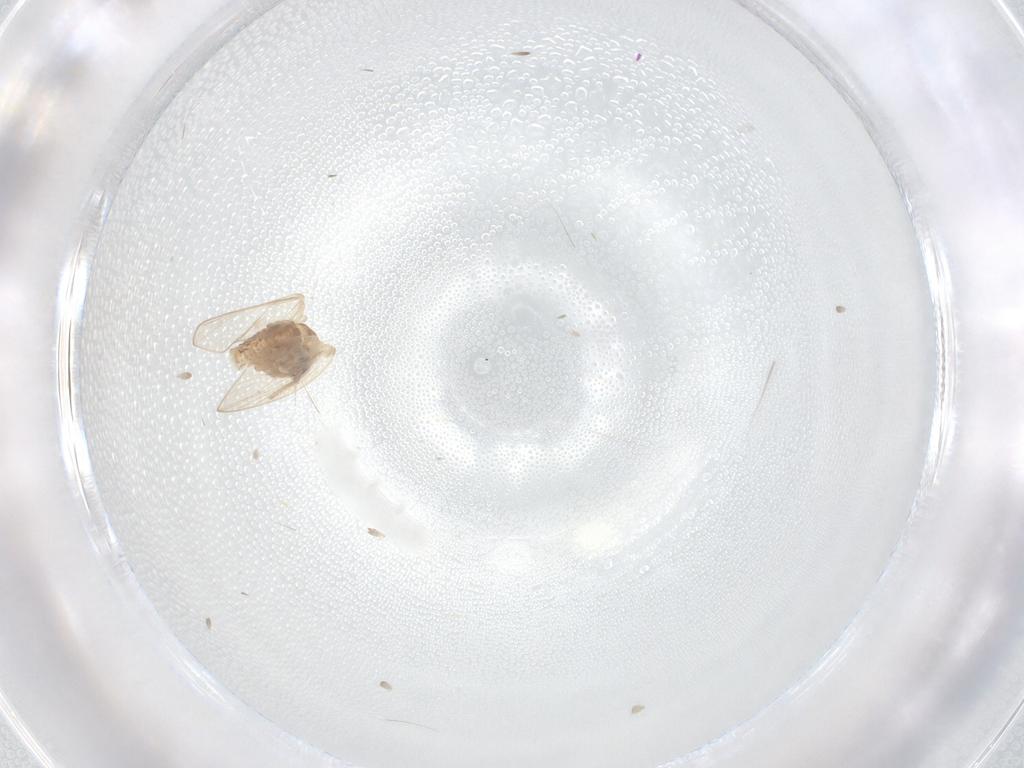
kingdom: Animalia
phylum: Arthropoda
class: Insecta
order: Diptera
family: Psychodidae
